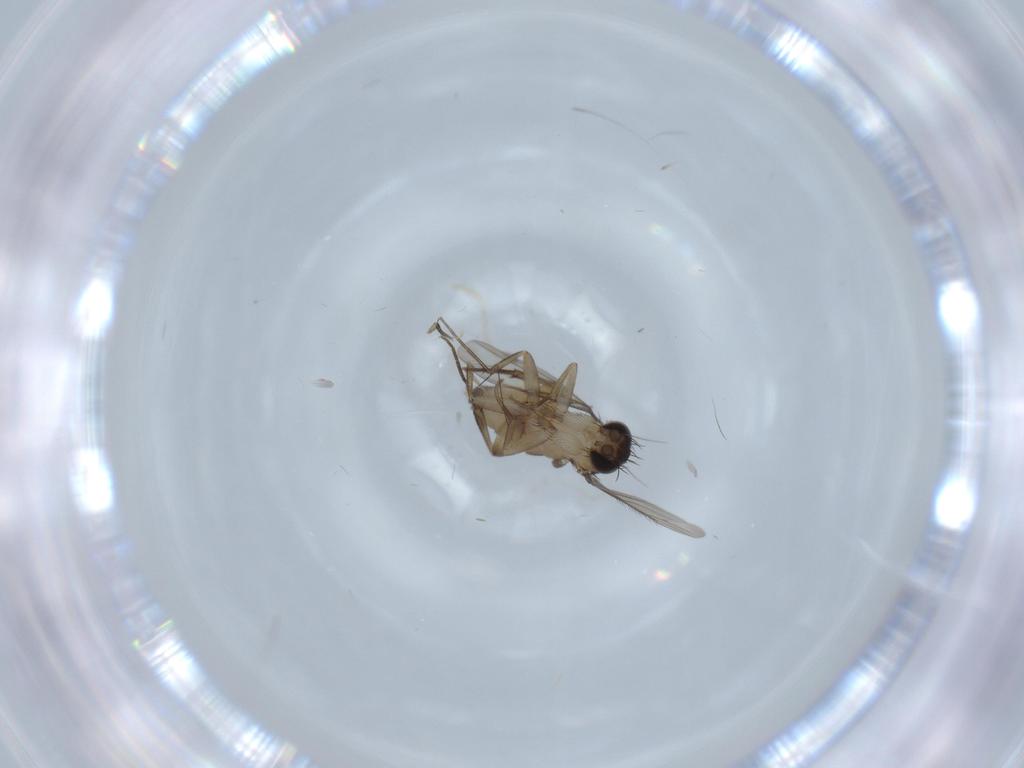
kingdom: Animalia
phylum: Arthropoda
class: Insecta
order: Diptera
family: Phoridae
